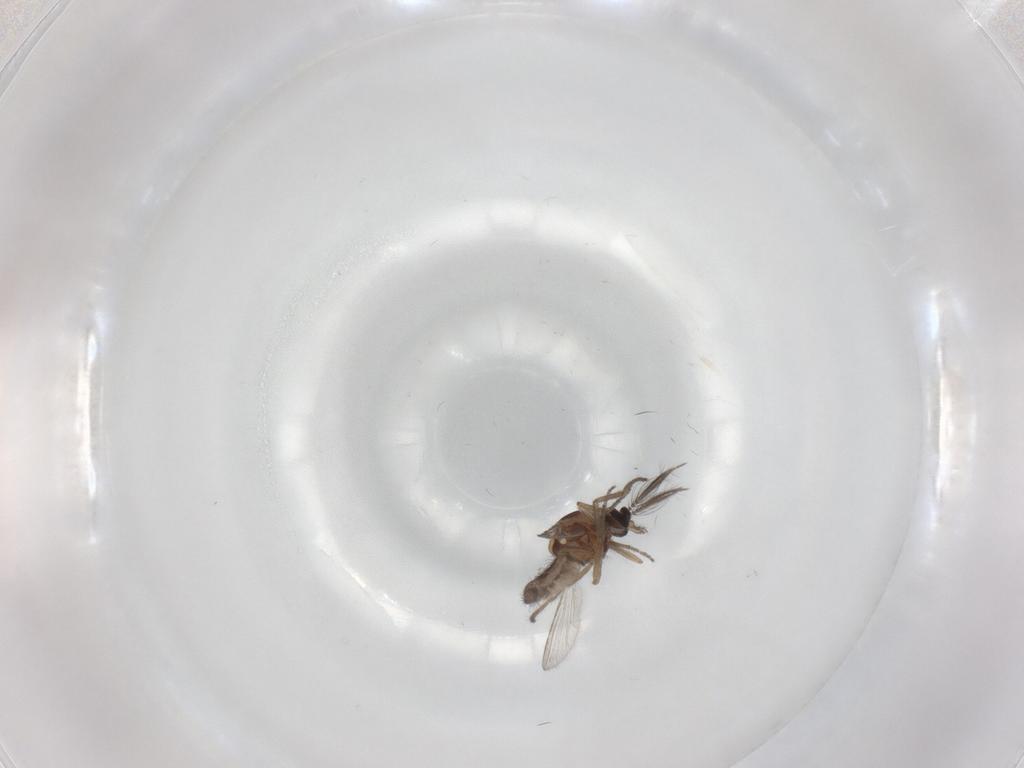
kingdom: Animalia
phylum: Arthropoda
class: Insecta
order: Diptera
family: Ceratopogonidae
